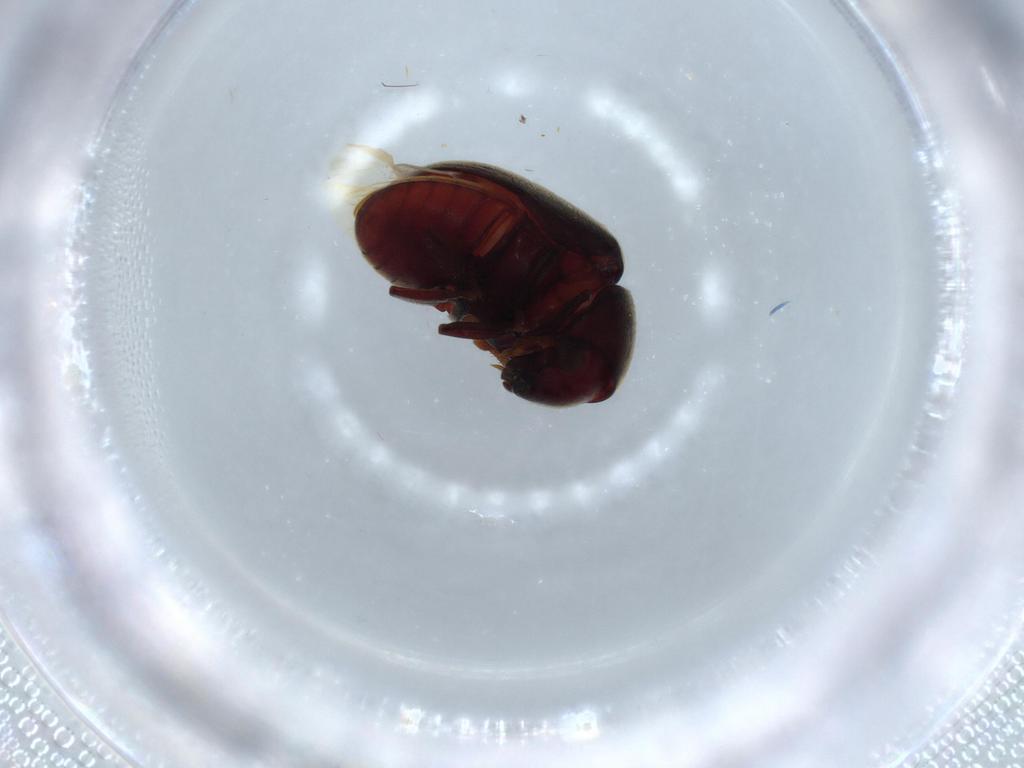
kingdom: Animalia
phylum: Arthropoda
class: Insecta
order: Coleoptera
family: Ptinidae
